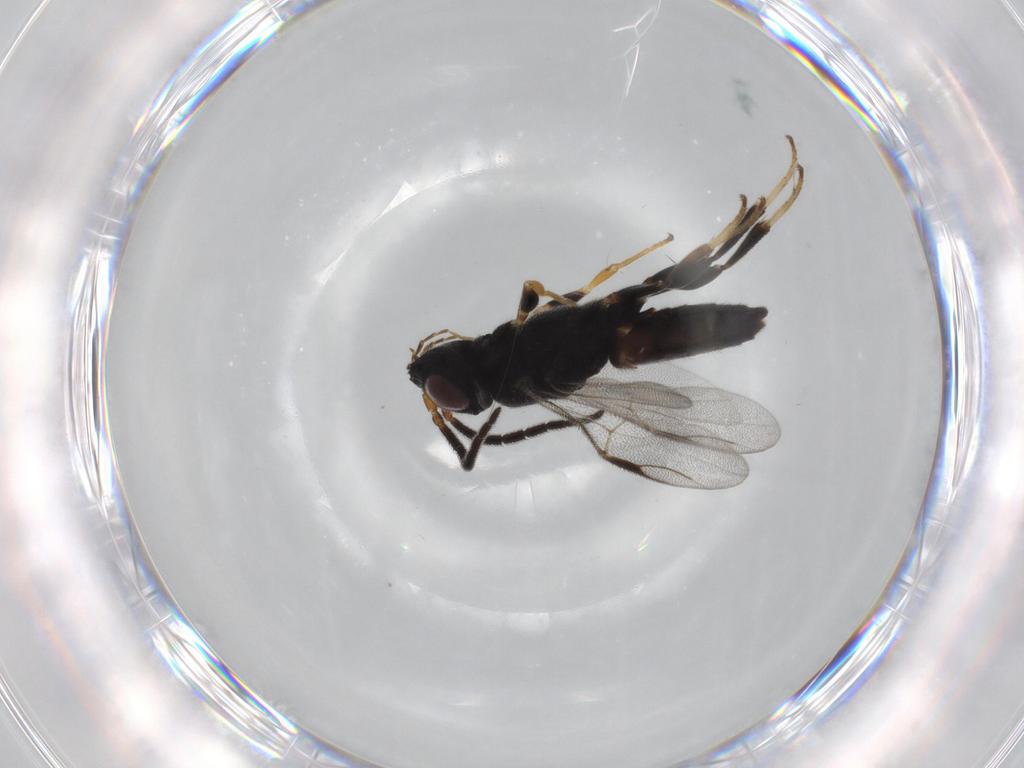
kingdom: Animalia
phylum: Arthropoda
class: Insecta
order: Hymenoptera
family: Dryinidae
